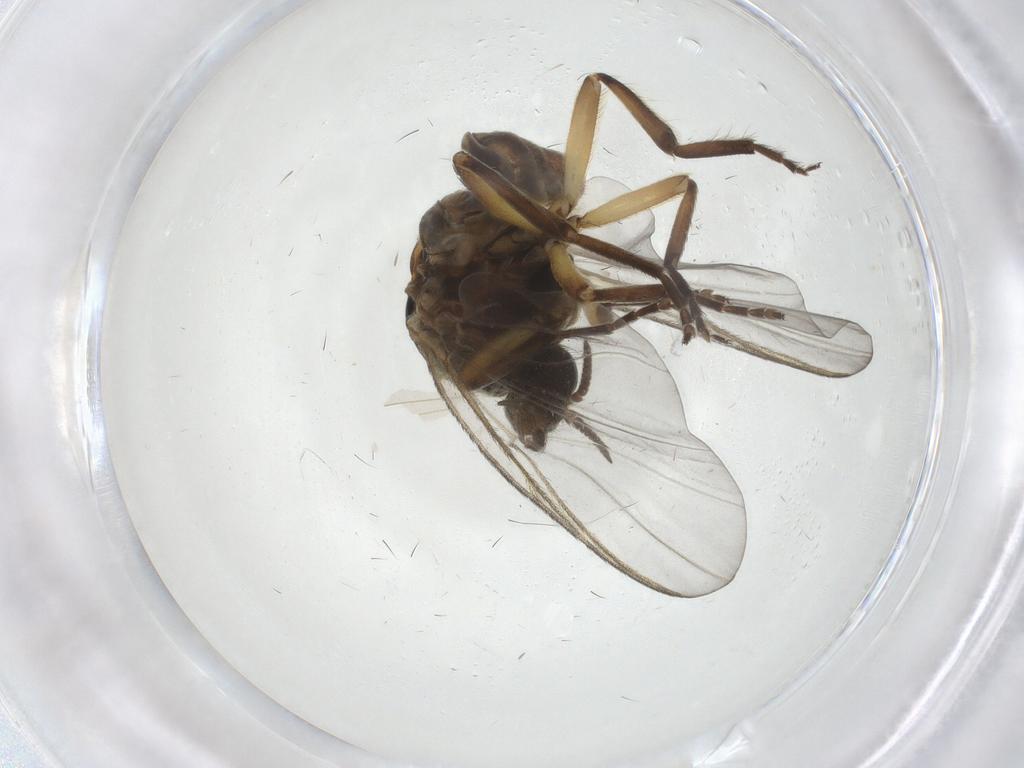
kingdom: Animalia
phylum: Arthropoda
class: Insecta
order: Diptera
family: Simuliidae
